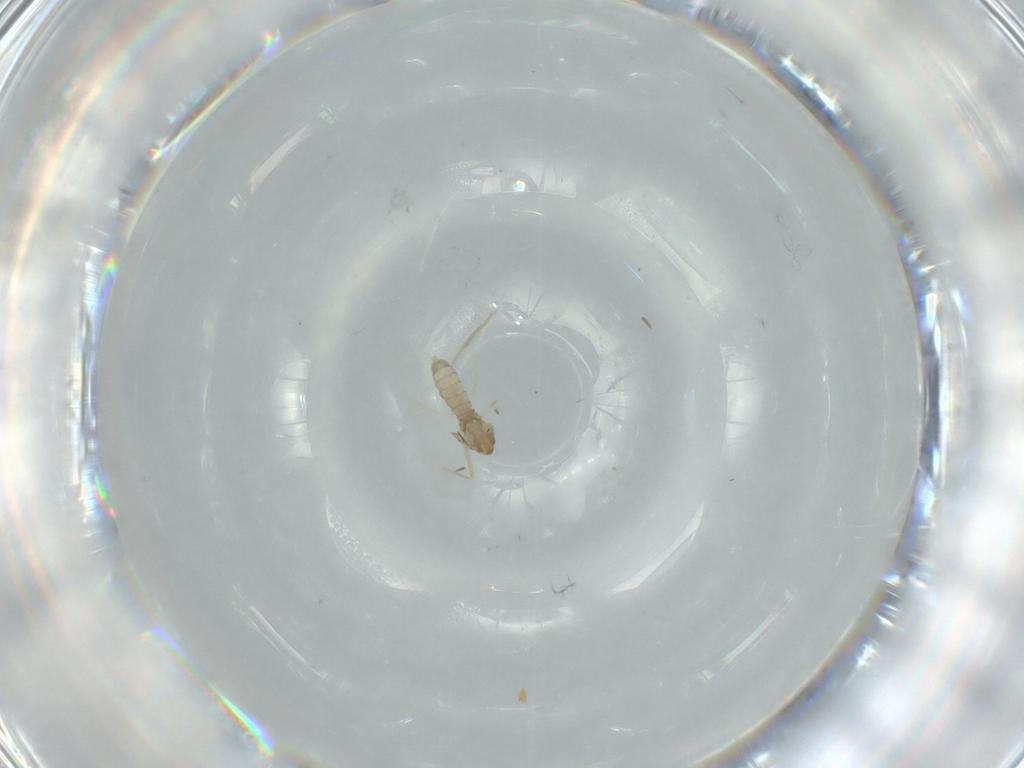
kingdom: Animalia
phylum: Arthropoda
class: Insecta
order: Diptera
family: Cecidomyiidae
